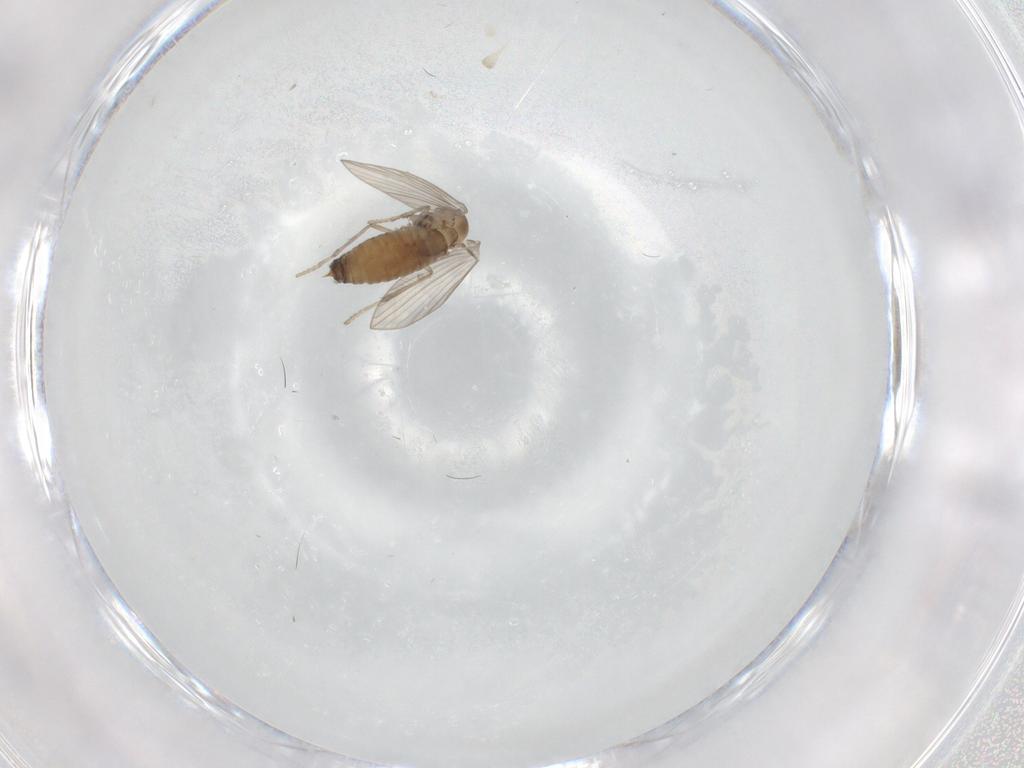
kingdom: Animalia
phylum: Arthropoda
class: Insecta
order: Diptera
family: Psychodidae
